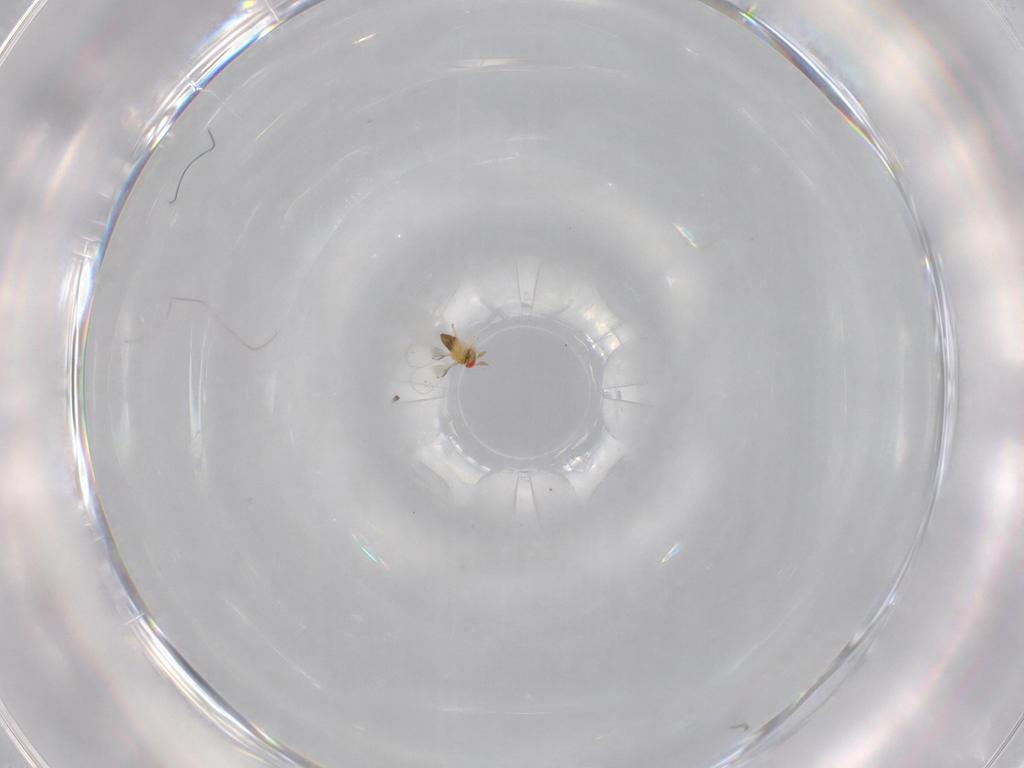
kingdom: Animalia
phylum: Arthropoda
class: Insecta
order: Hymenoptera
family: Trichogrammatidae
